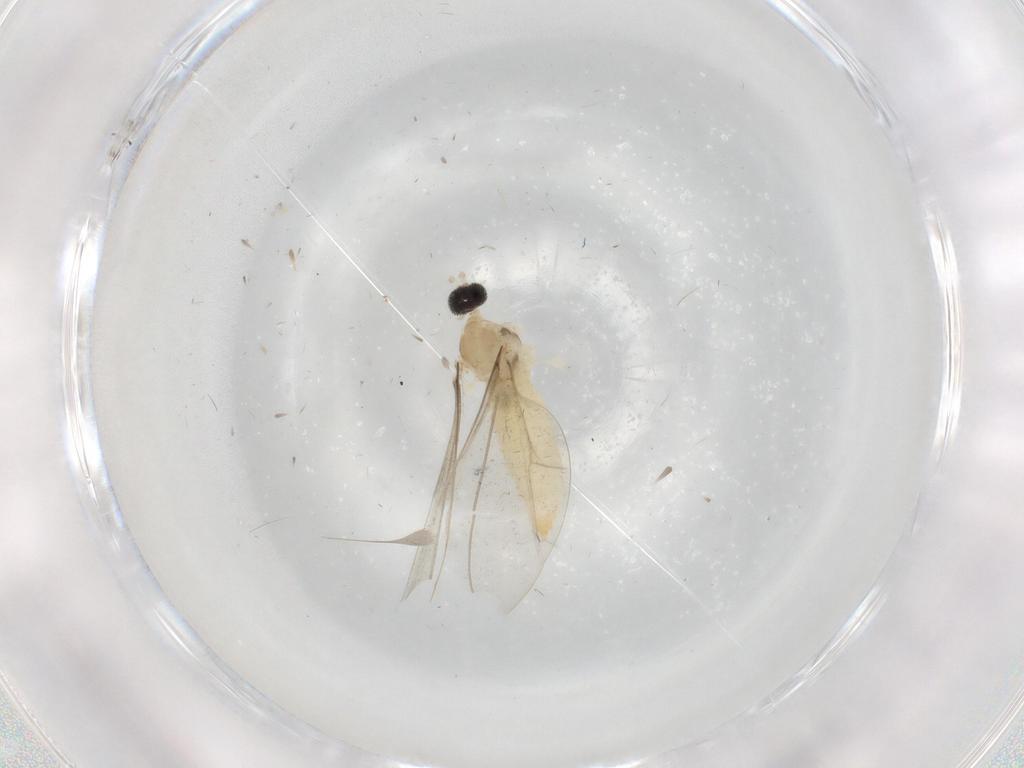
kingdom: Animalia
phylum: Arthropoda
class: Insecta
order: Diptera
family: Cecidomyiidae
